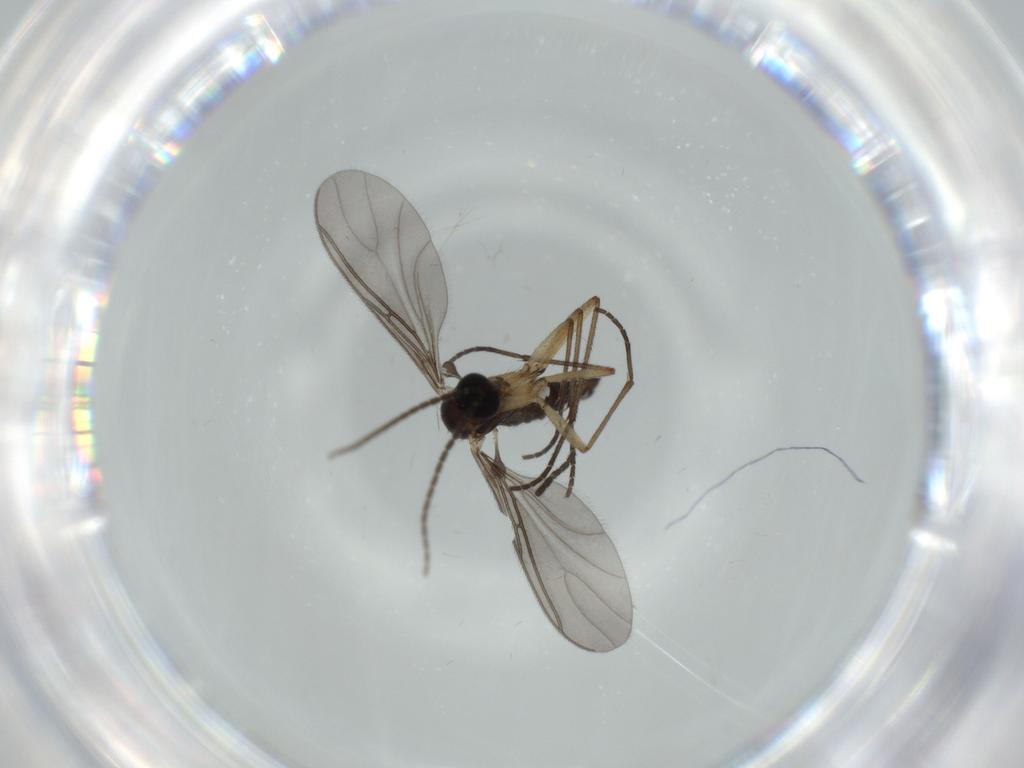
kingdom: Animalia
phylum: Arthropoda
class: Insecta
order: Diptera
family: Sciaridae
